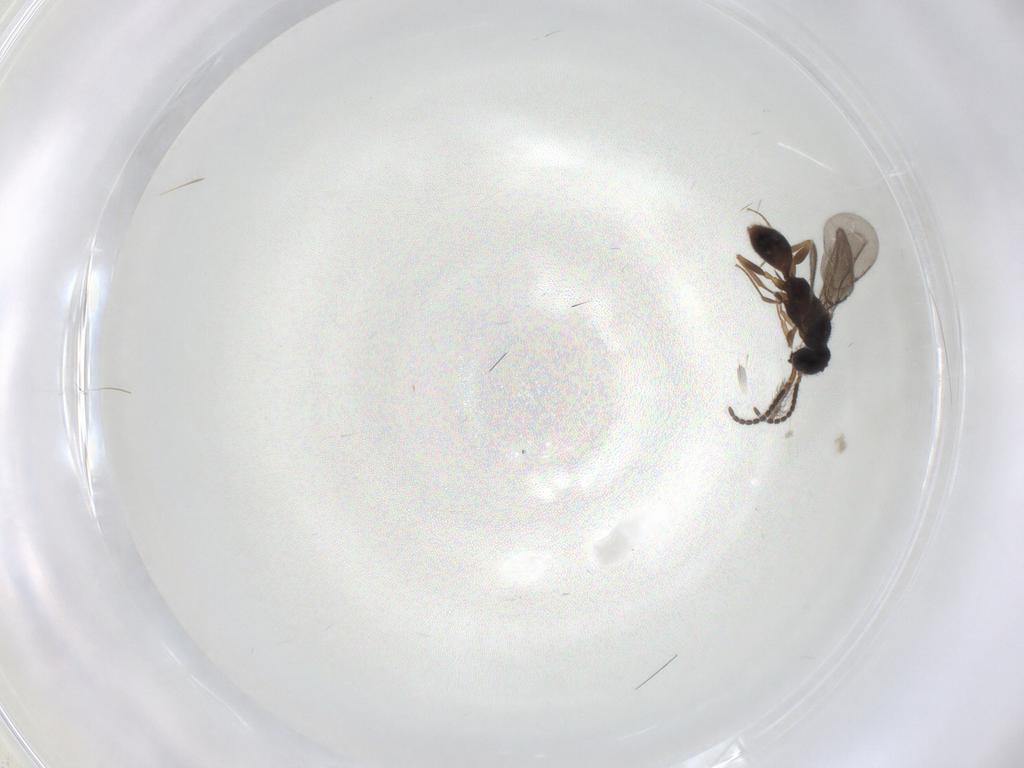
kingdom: Animalia
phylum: Arthropoda
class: Insecta
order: Hymenoptera
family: Bethylidae
